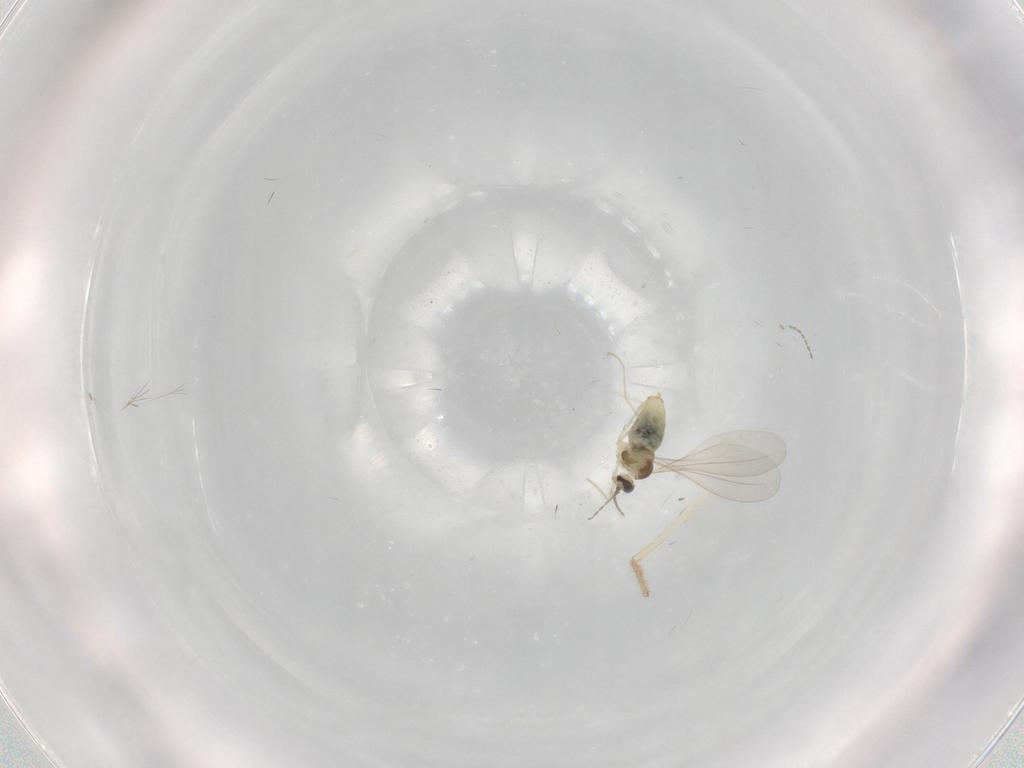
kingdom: Animalia
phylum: Arthropoda
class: Insecta
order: Diptera
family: Chironomidae
